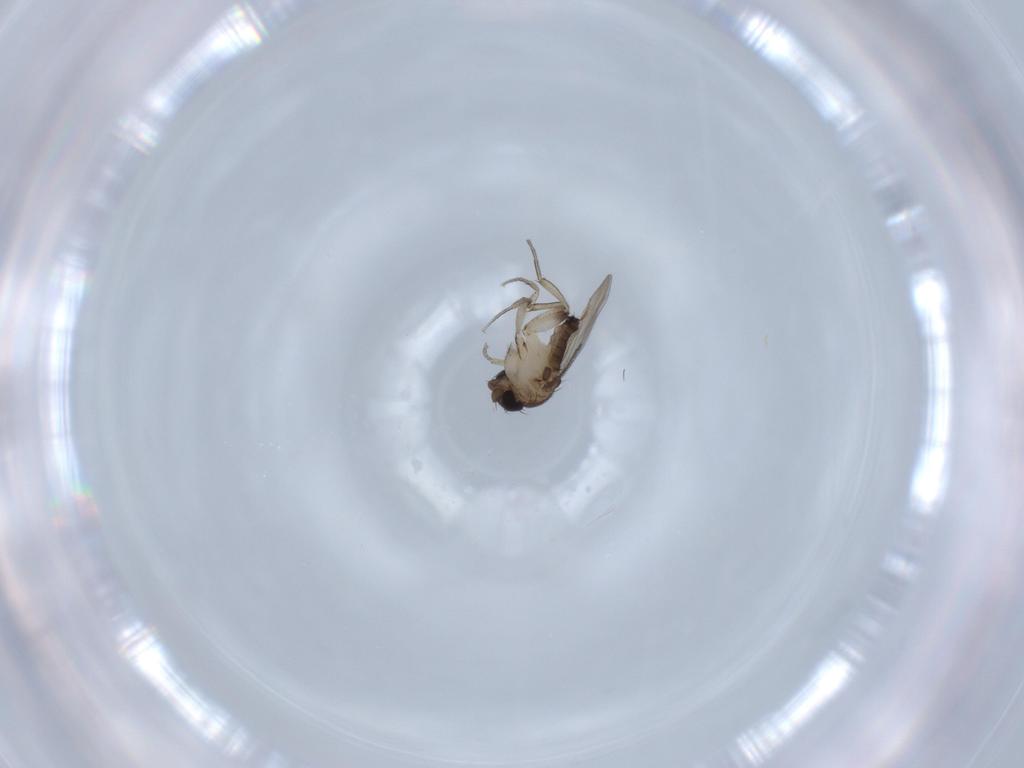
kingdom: Animalia
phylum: Arthropoda
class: Insecta
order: Diptera
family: Phoridae
